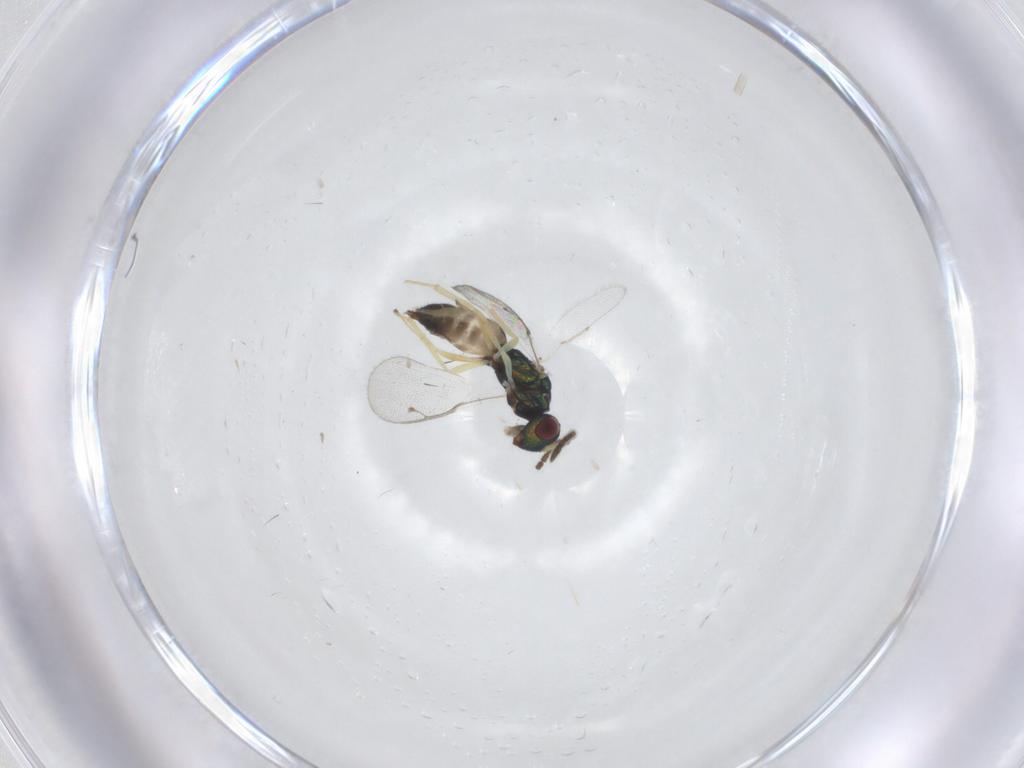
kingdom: Animalia
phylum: Arthropoda
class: Insecta
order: Hymenoptera
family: Pteromalidae
